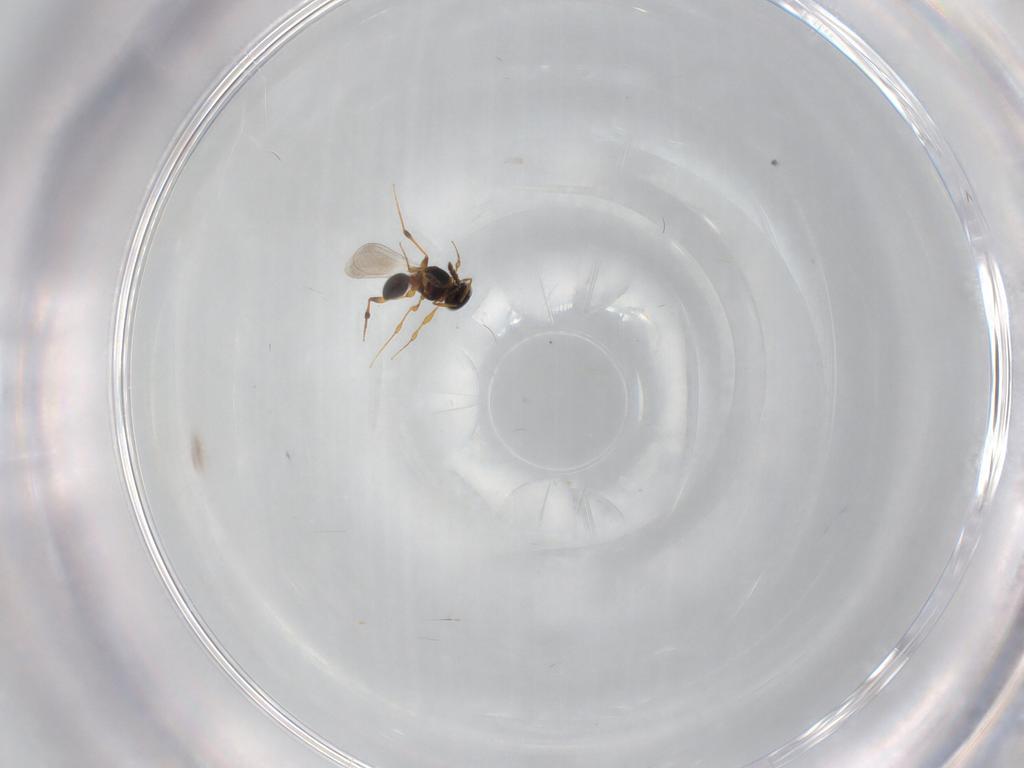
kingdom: Animalia
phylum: Arthropoda
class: Insecta
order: Hymenoptera
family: Platygastridae
